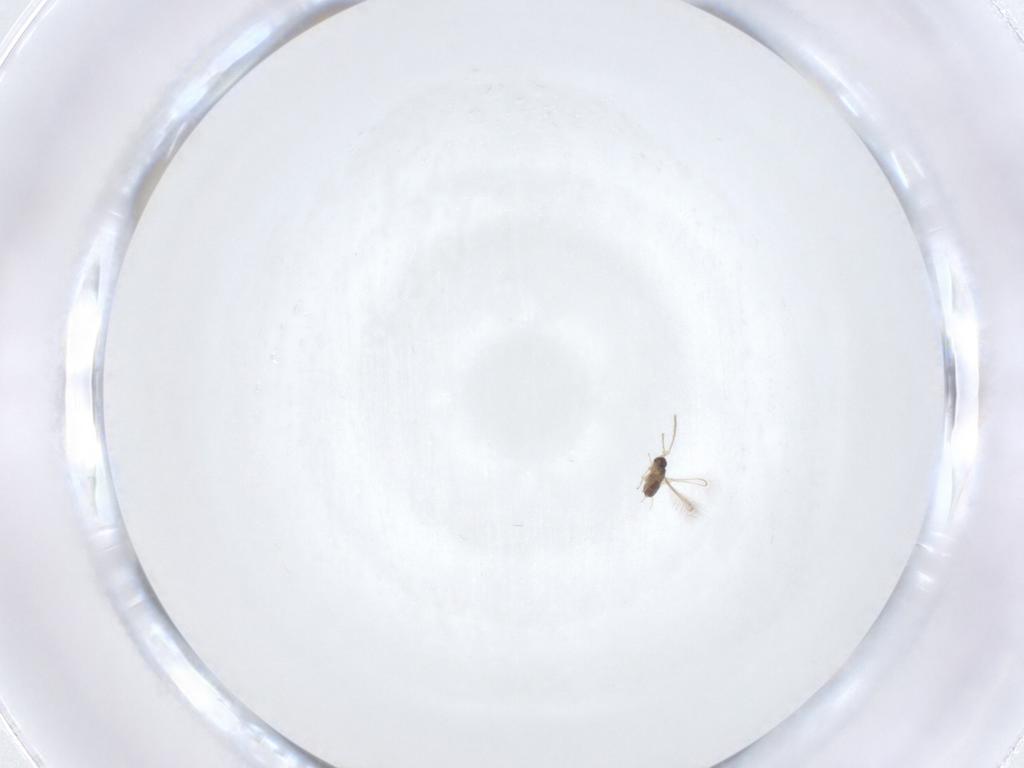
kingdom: Animalia
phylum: Arthropoda
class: Insecta
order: Hymenoptera
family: Mymaridae
